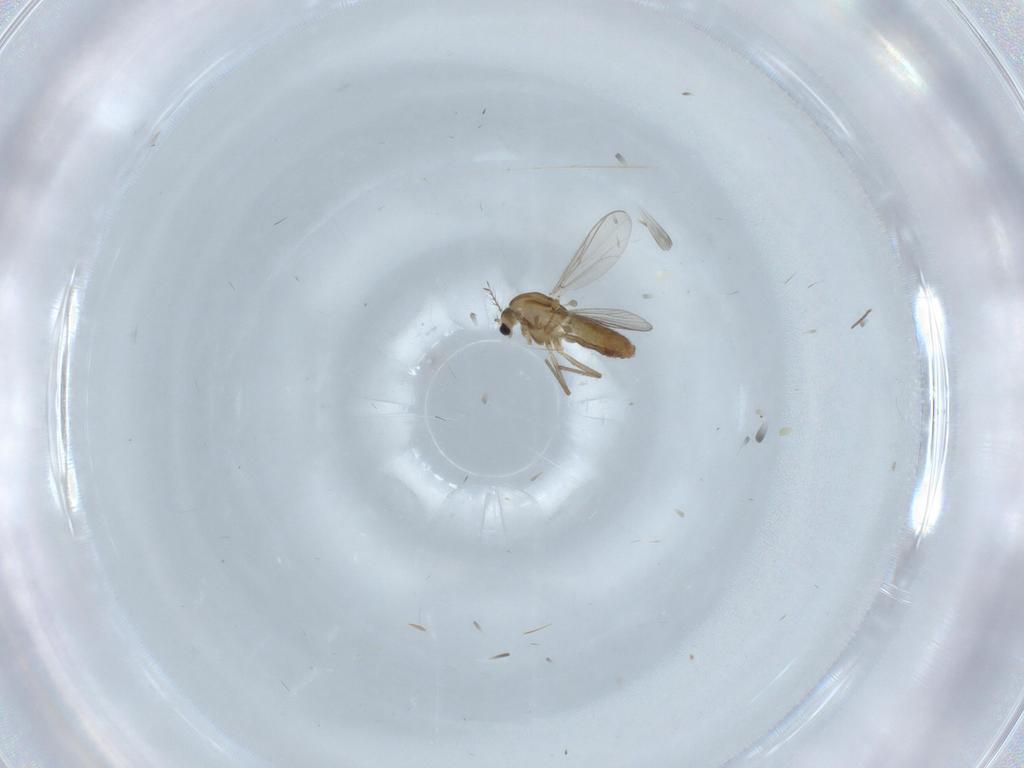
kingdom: Animalia
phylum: Arthropoda
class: Insecta
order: Diptera
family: Chironomidae
